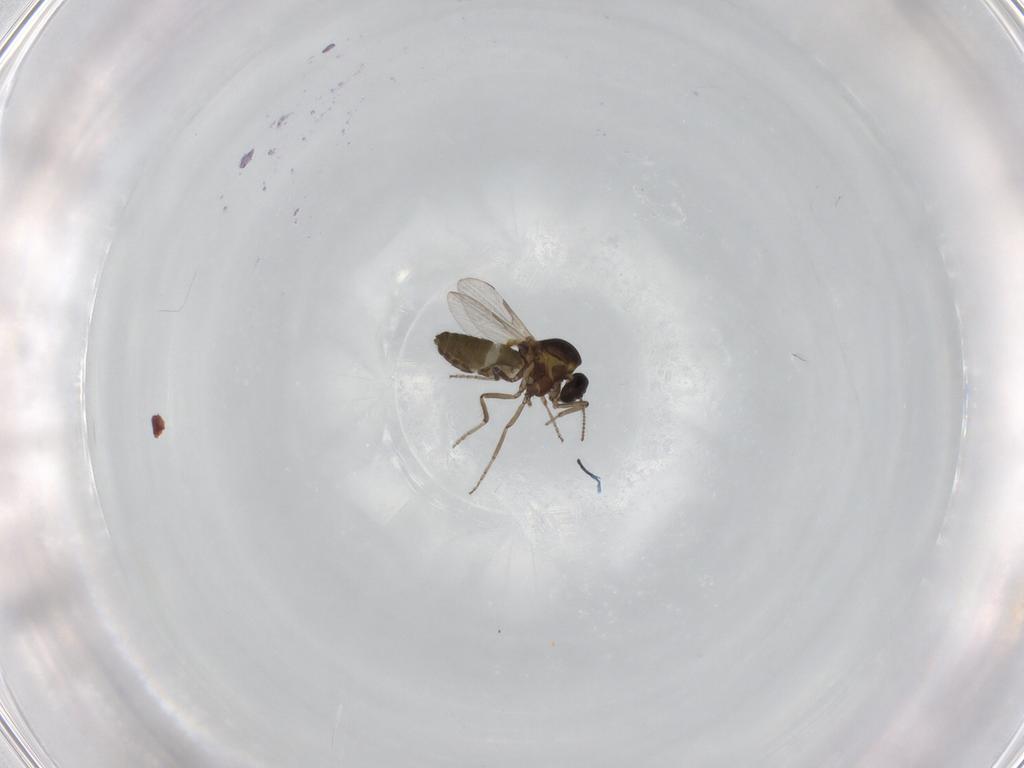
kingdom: Animalia
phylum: Arthropoda
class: Insecta
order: Diptera
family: Ceratopogonidae
